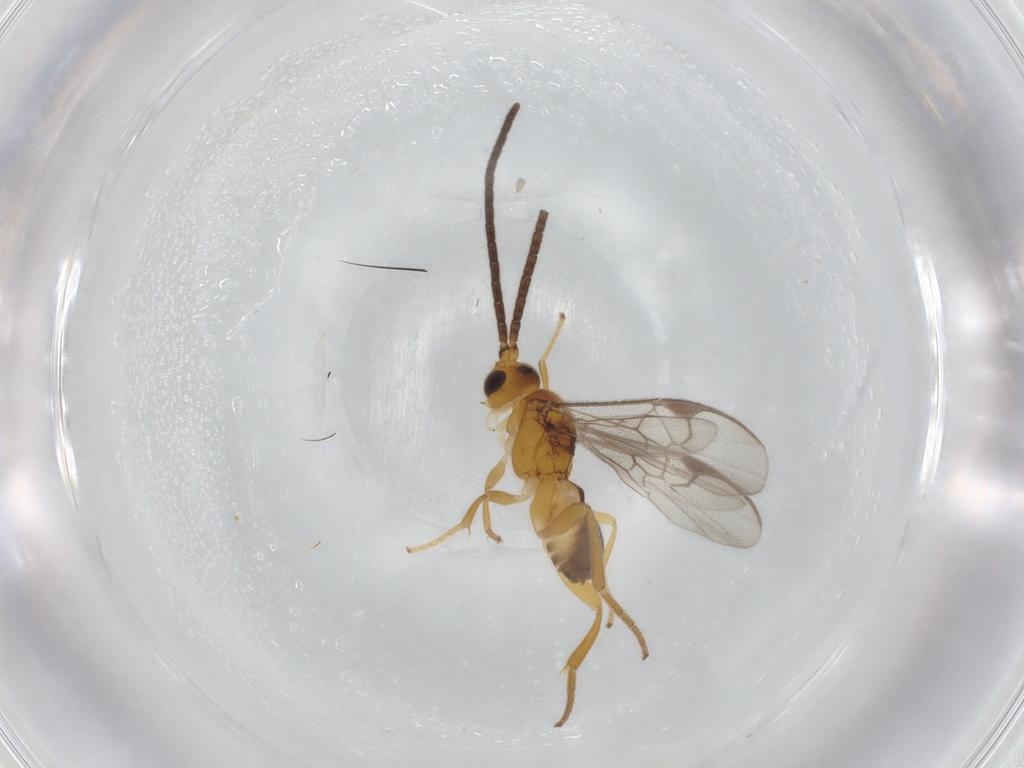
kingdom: Animalia
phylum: Arthropoda
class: Insecta
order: Hymenoptera
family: Braconidae
